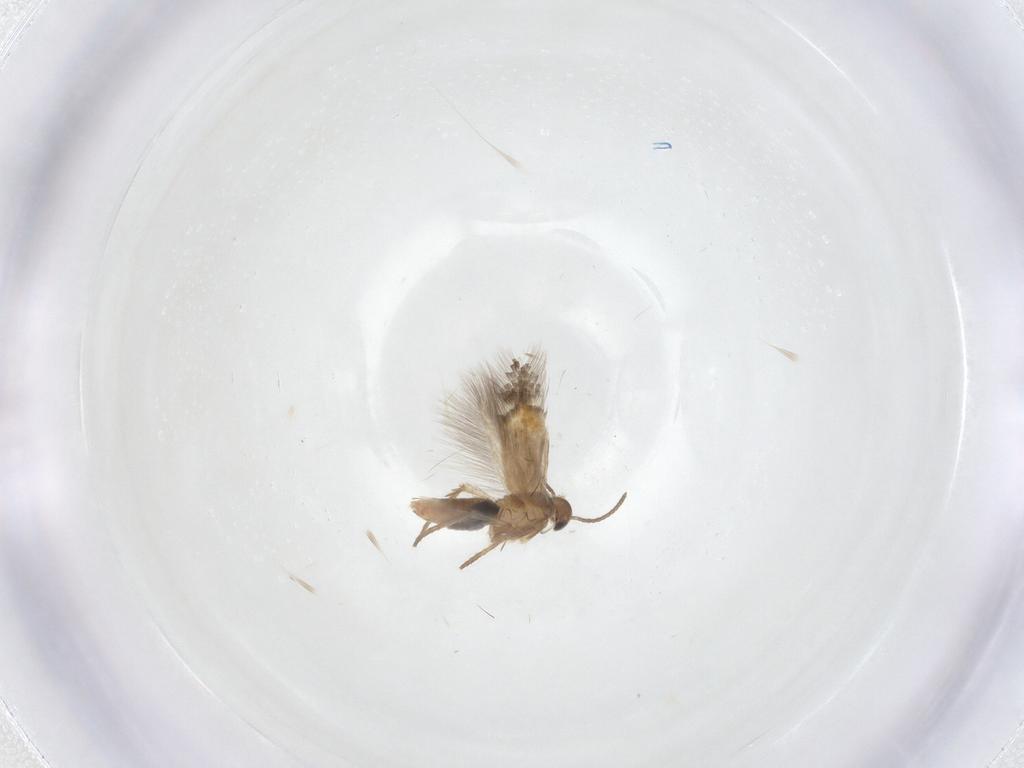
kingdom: Animalia
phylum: Arthropoda
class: Insecta
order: Lepidoptera
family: Heliozelidae
